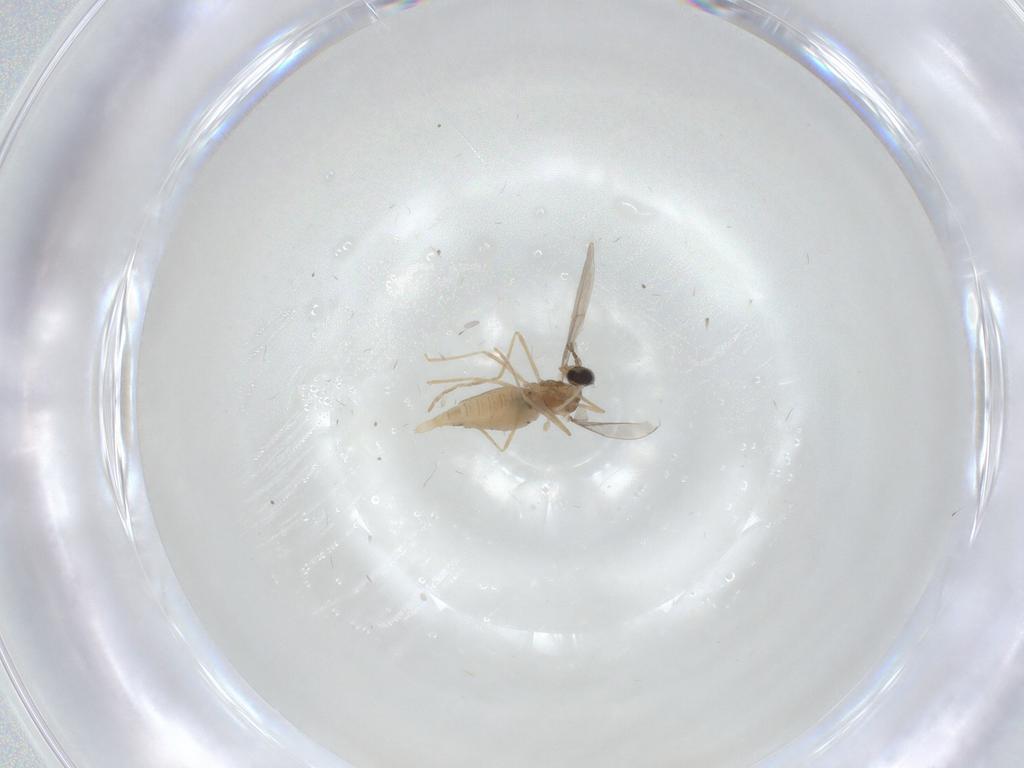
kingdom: Animalia
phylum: Arthropoda
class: Insecta
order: Diptera
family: Cecidomyiidae
